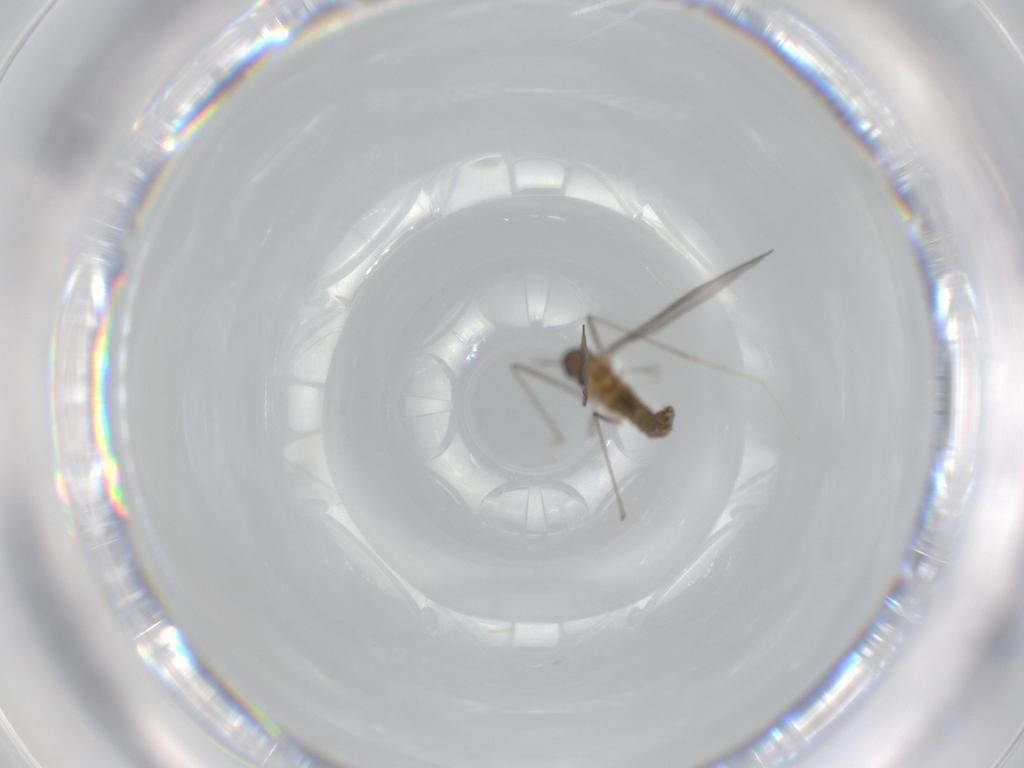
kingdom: Animalia
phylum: Arthropoda
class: Insecta
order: Diptera
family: Cecidomyiidae
